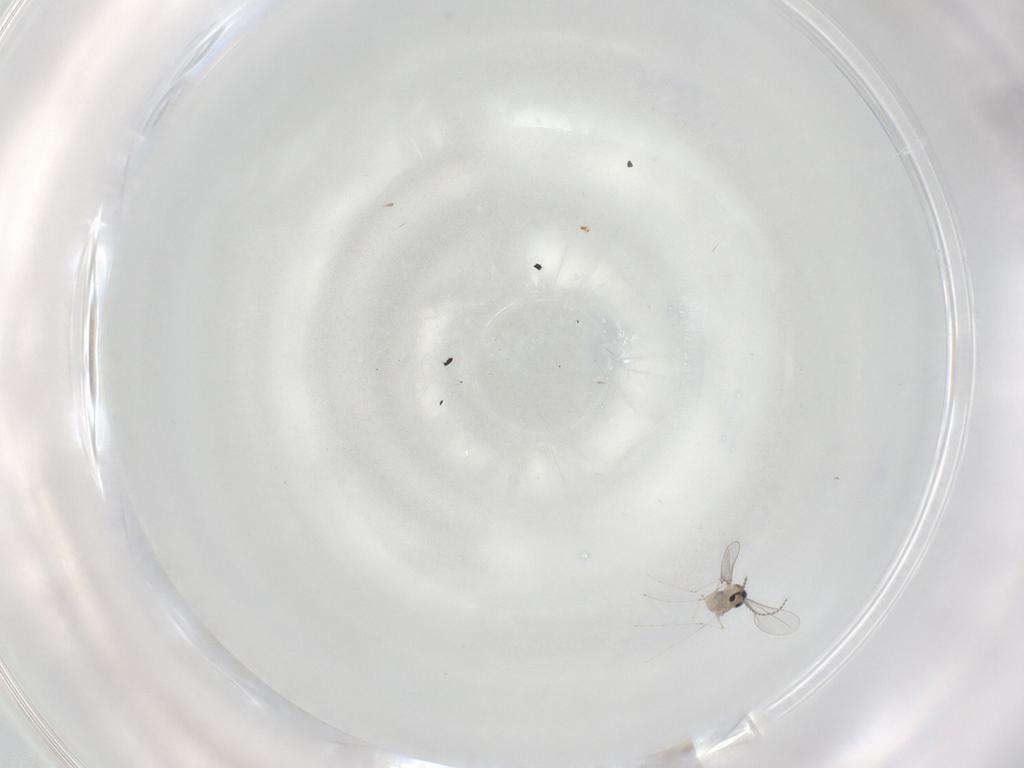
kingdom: Animalia
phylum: Arthropoda
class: Insecta
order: Diptera
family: Limoniidae
